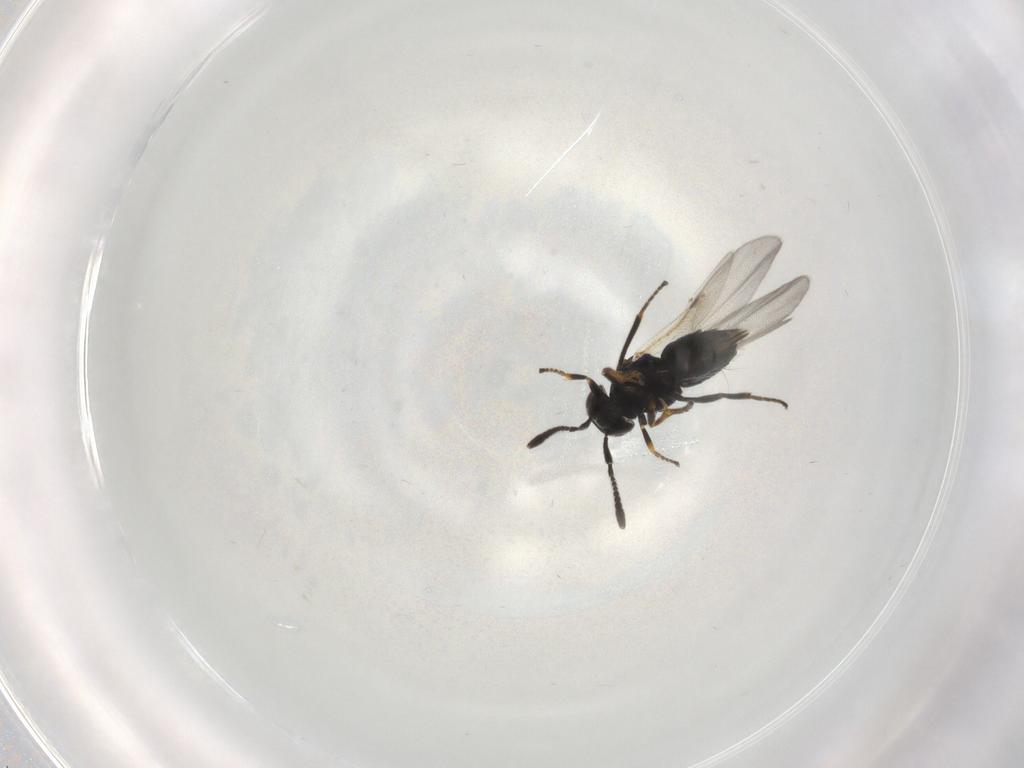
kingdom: Animalia
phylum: Arthropoda
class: Insecta
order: Hymenoptera
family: Encyrtidae
